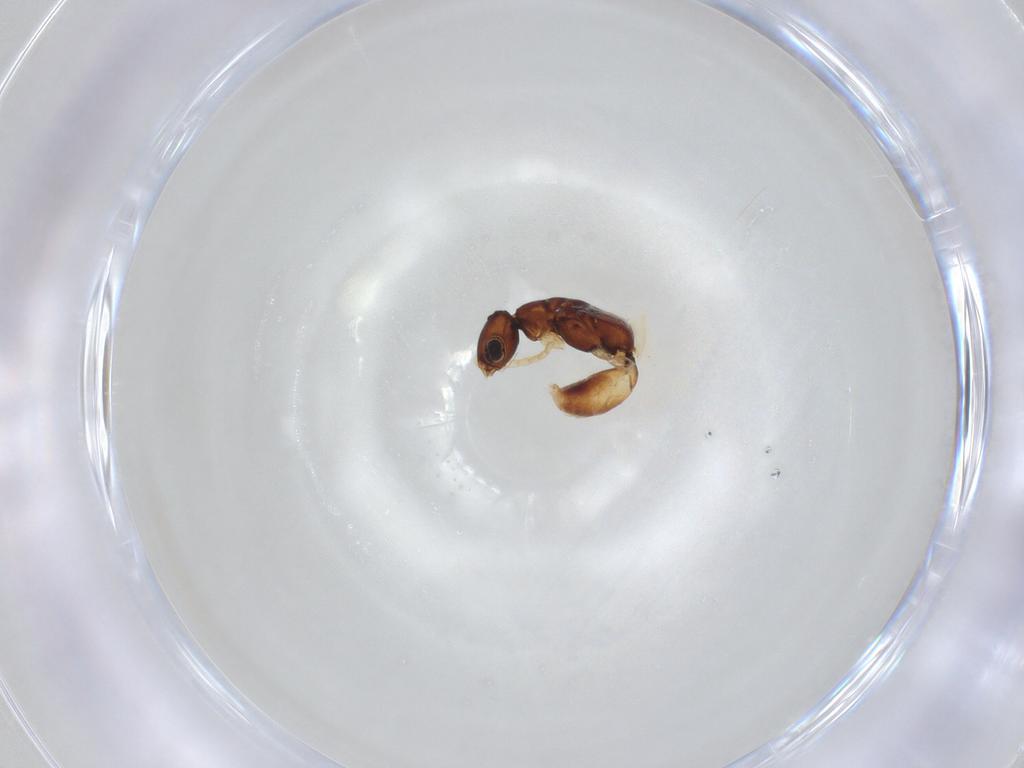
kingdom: Animalia
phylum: Arthropoda
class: Insecta
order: Hymenoptera
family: Bethylidae
